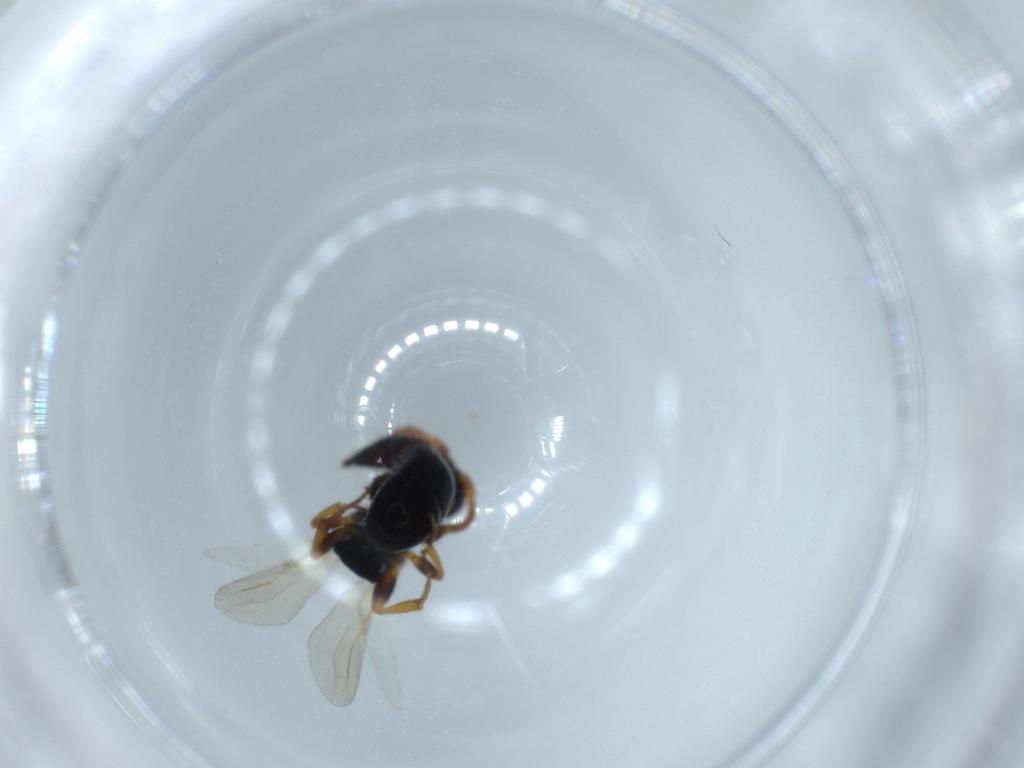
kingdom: Animalia
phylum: Arthropoda
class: Insecta
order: Hymenoptera
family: Bethylidae
